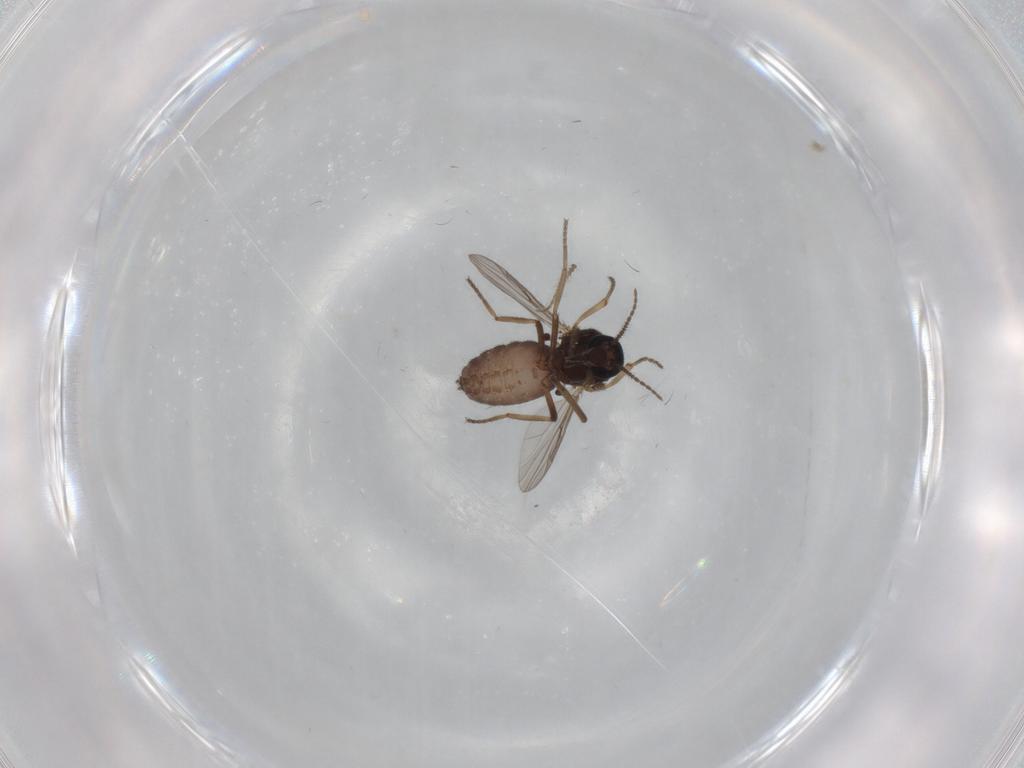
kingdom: Animalia
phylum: Arthropoda
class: Insecta
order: Diptera
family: Ceratopogonidae
